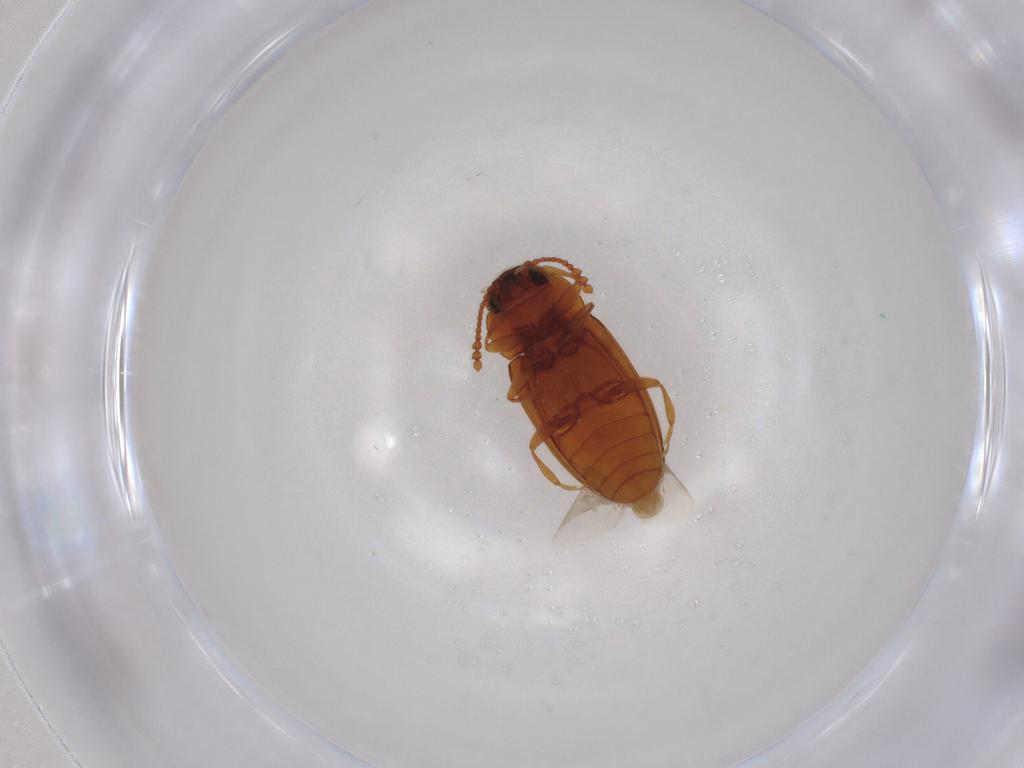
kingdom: Animalia
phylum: Arthropoda
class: Insecta
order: Coleoptera
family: Erotylidae
